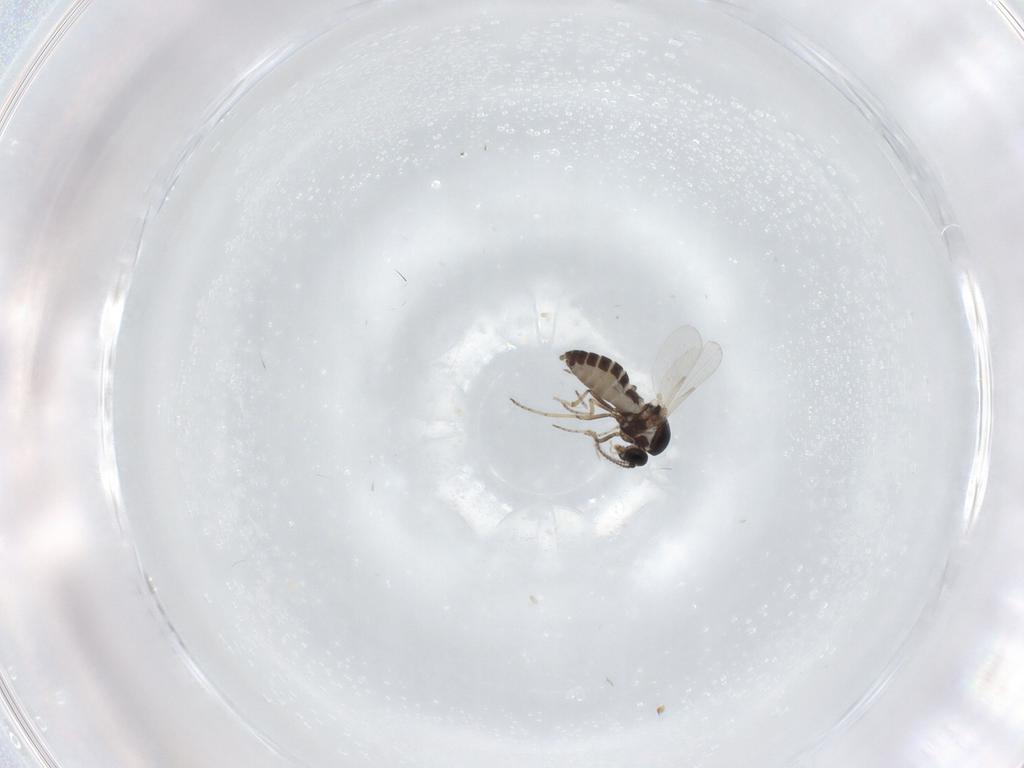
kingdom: Animalia
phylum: Arthropoda
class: Insecta
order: Diptera
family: Ceratopogonidae
